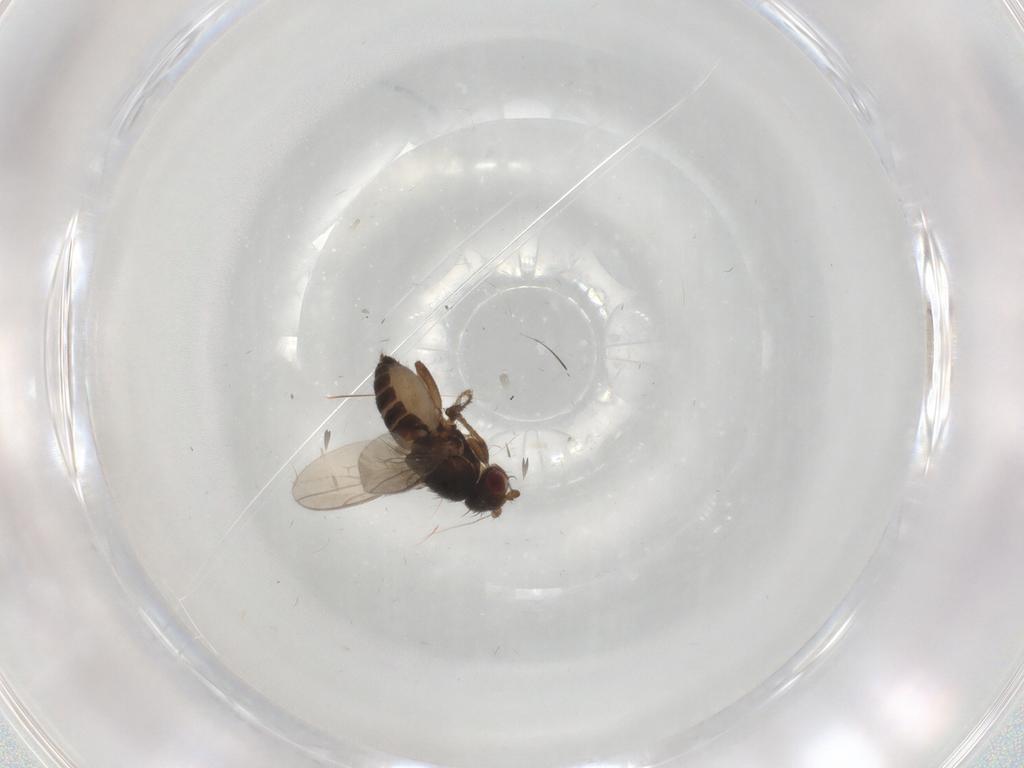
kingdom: Animalia
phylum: Arthropoda
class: Insecta
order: Diptera
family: Sphaeroceridae
